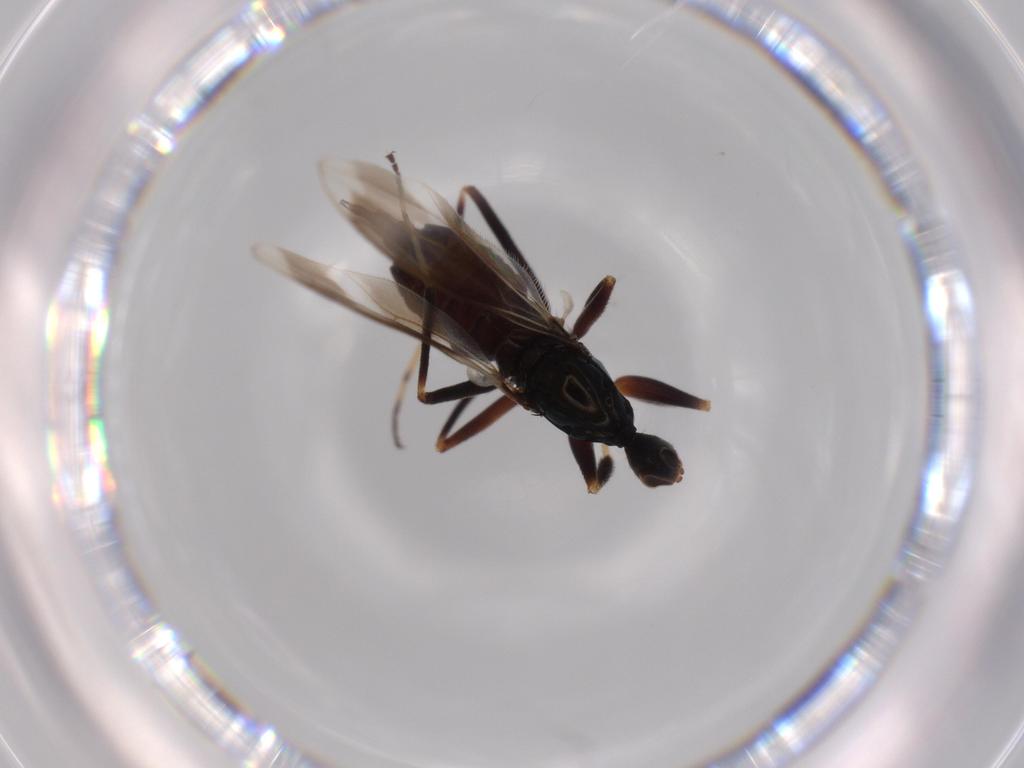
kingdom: Animalia
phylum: Arthropoda
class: Insecta
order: Diptera
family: Hybotidae
